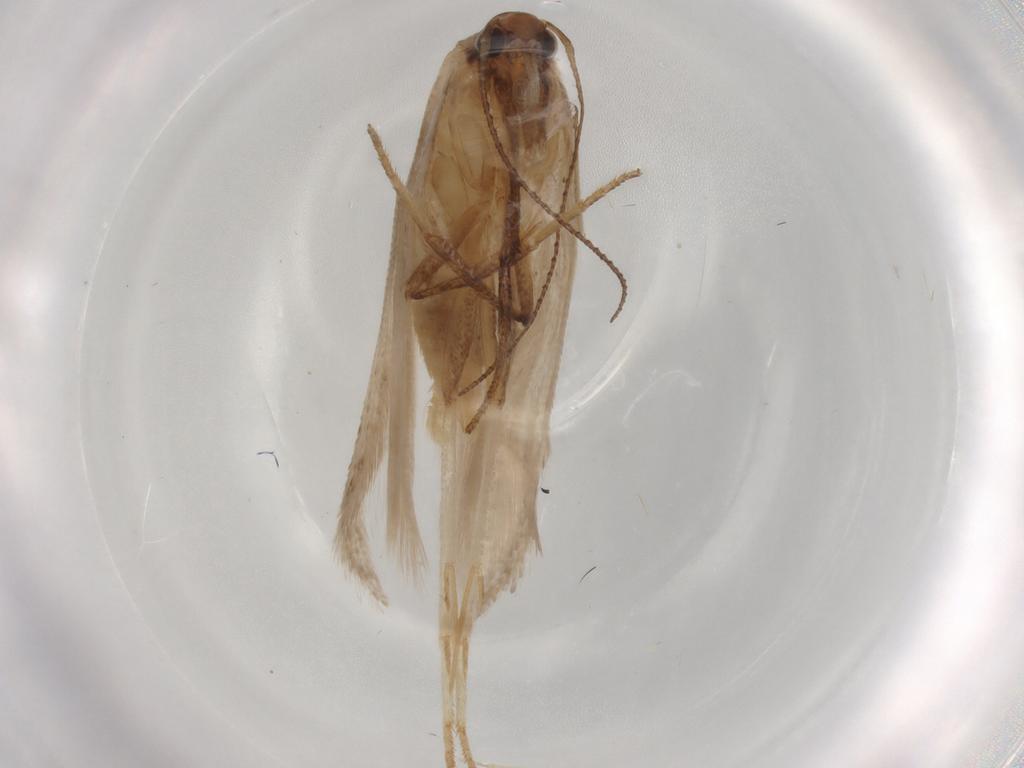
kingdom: Animalia
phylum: Arthropoda
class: Insecta
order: Lepidoptera
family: Gelechiidae
